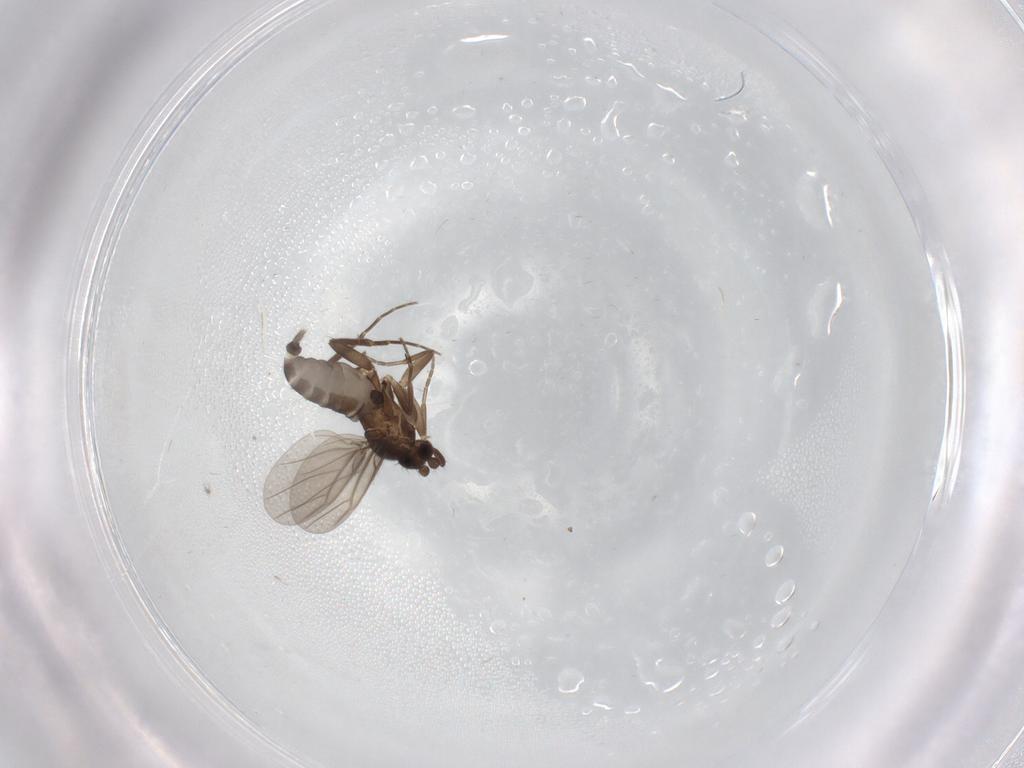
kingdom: Animalia
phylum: Arthropoda
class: Insecta
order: Diptera
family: Phoridae
